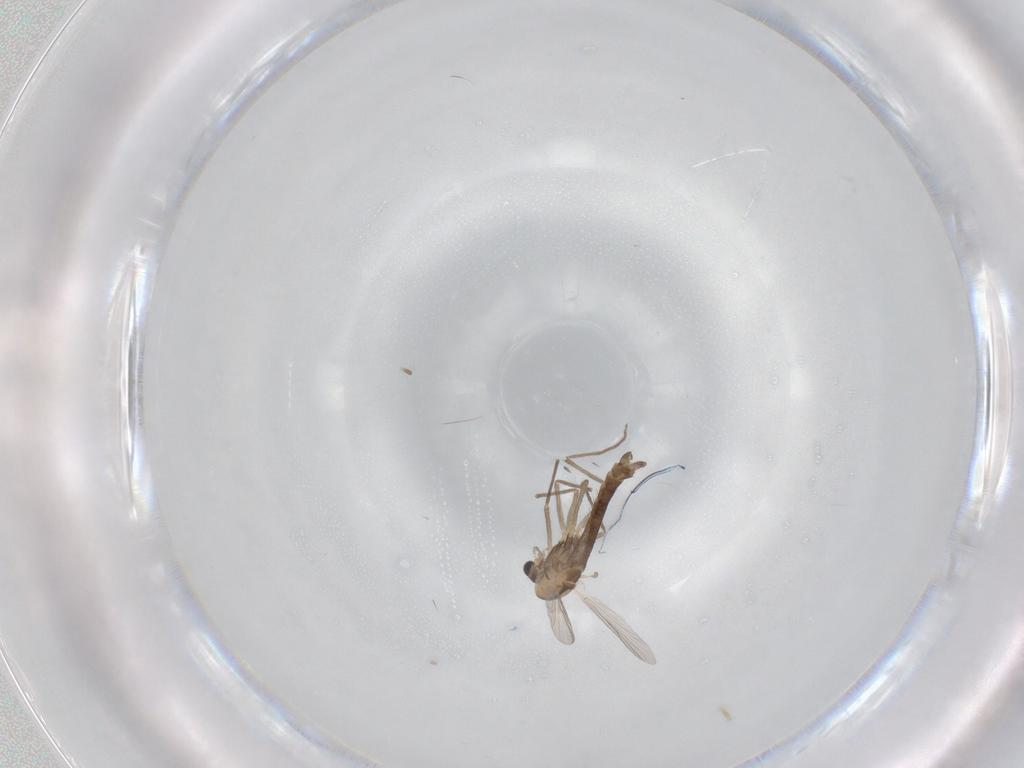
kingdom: Animalia
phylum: Arthropoda
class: Insecta
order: Diptera
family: Chironomidae
